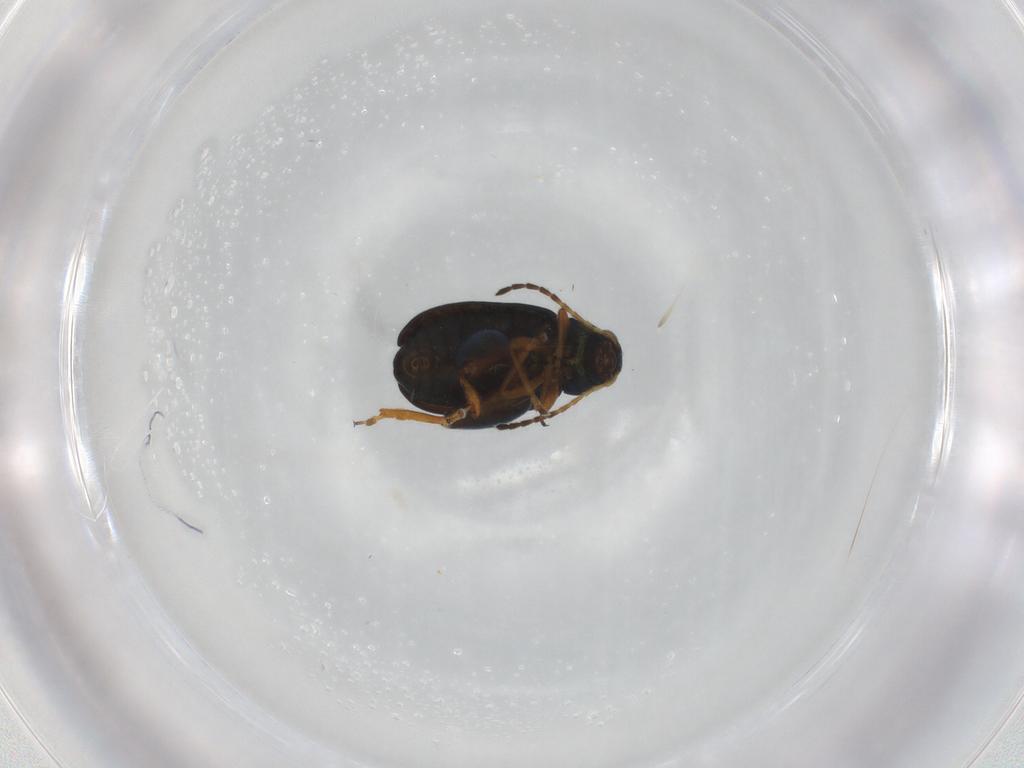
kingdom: Animalia
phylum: Arthropoda
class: Insecta
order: Coleoptera
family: Chrysomelidae
